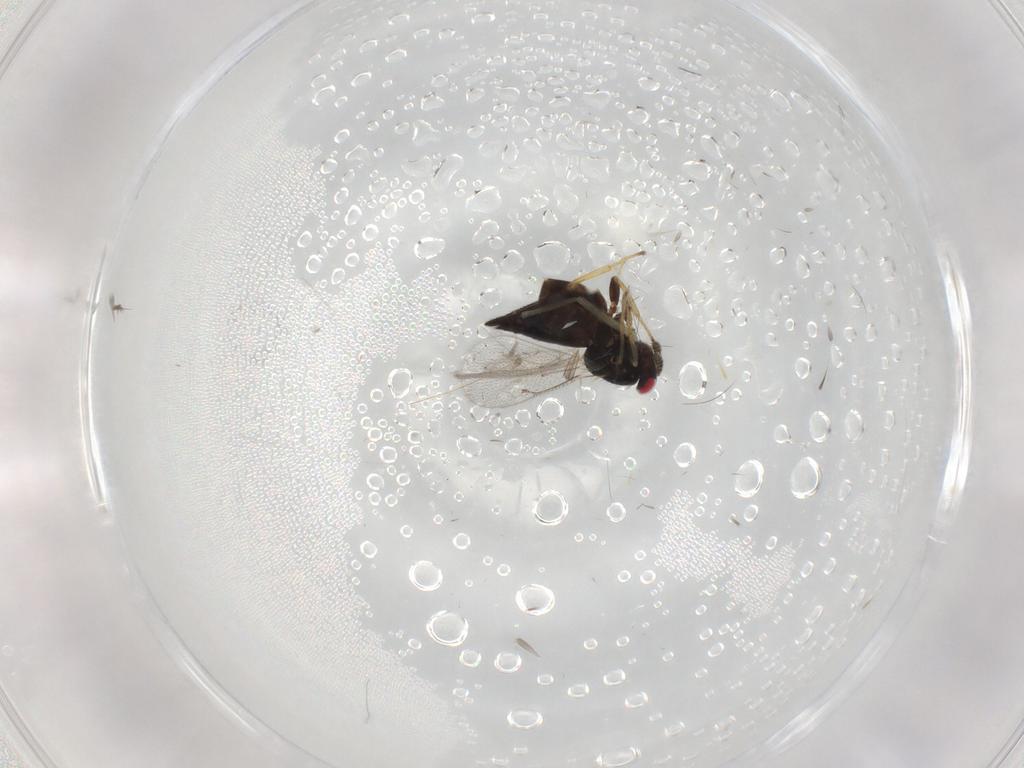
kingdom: Animalia
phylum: Arthropoda
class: Insecta
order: Hymenoptera
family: Eulophidae
